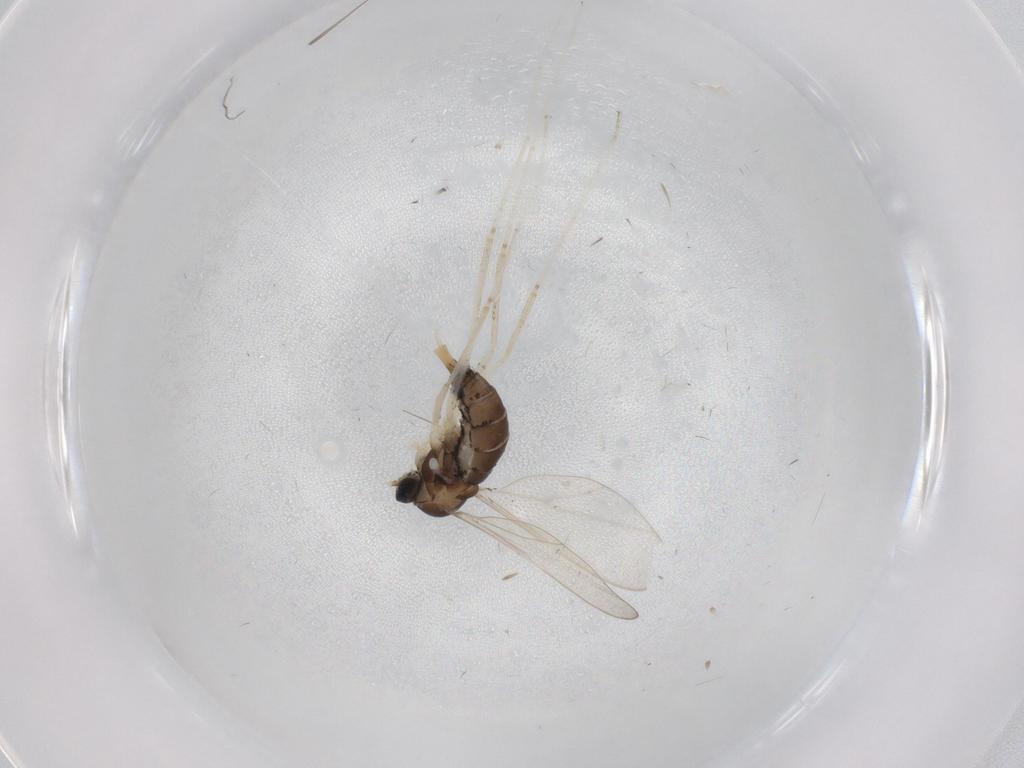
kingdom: Animalia
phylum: Arthropoda
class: Insecta
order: Diptera
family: Cecidomyiidae
